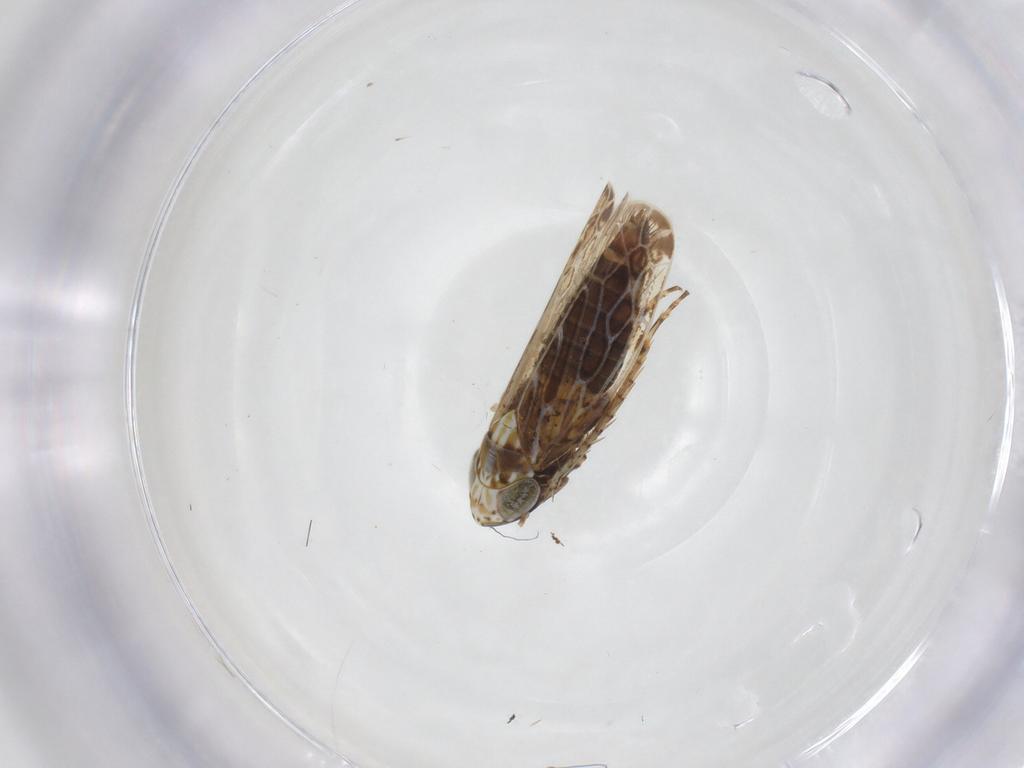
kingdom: Animalia
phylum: Arthropoda
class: Insecta
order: Hemiptera
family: Cicadellidae
